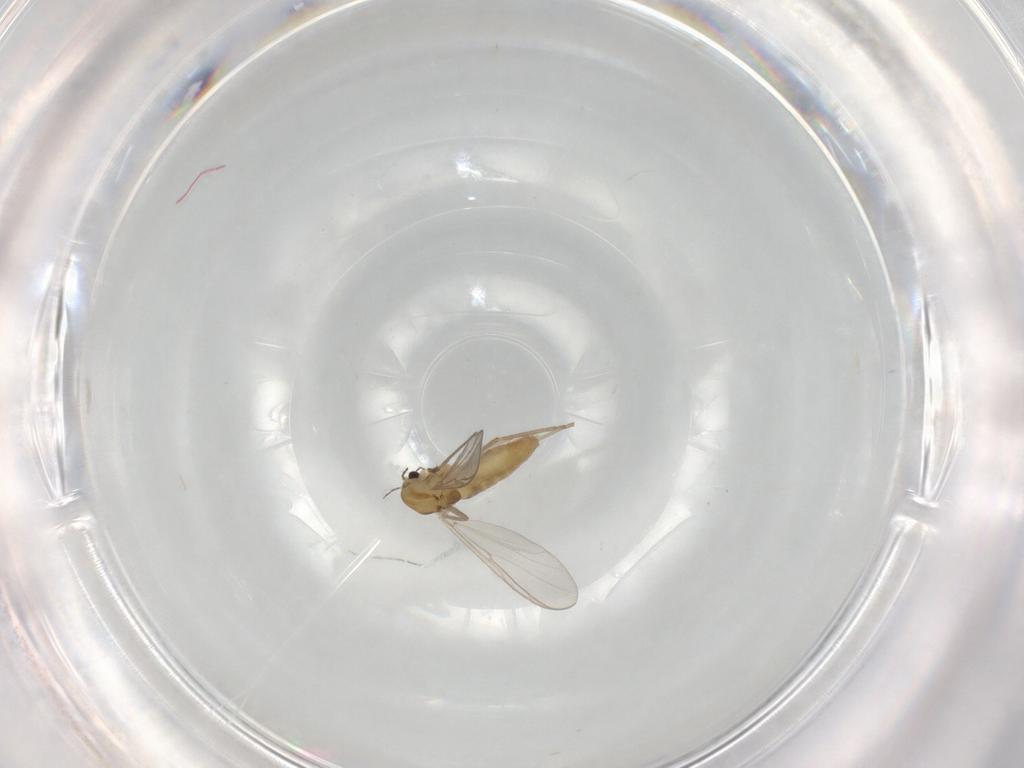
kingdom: Animalia
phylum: Arthropoda
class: Insecta
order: Diptera
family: Chironomidae
